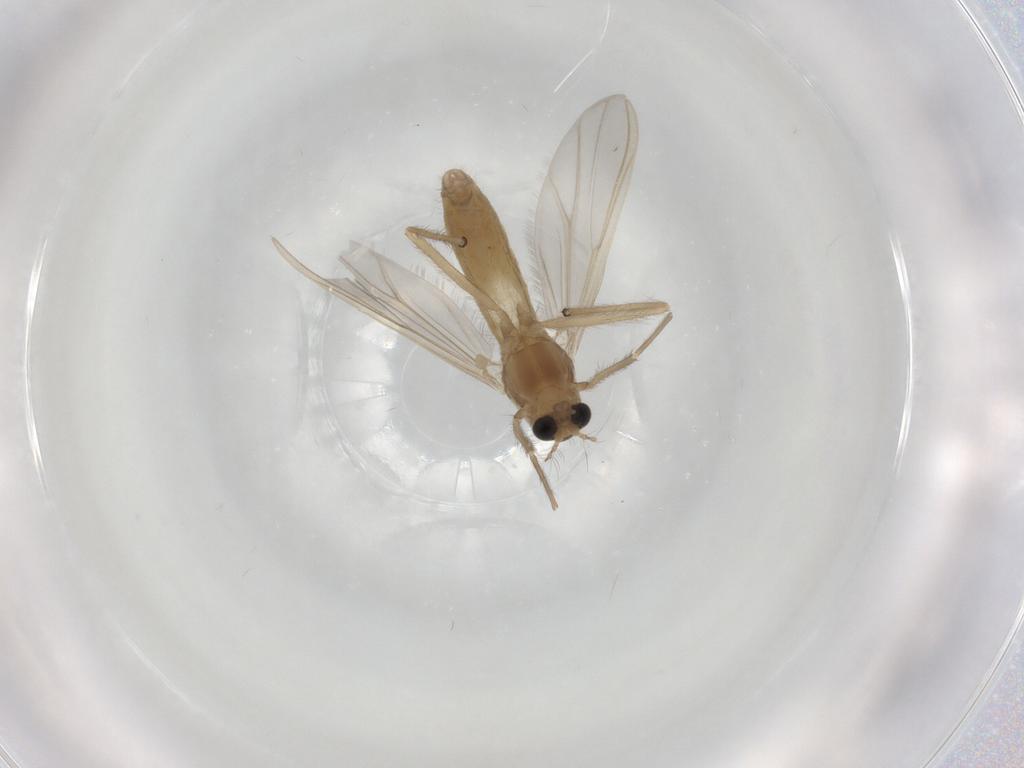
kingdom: Animalia
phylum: Arthropoda
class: Insecta
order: Diptera
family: Chironomidae
